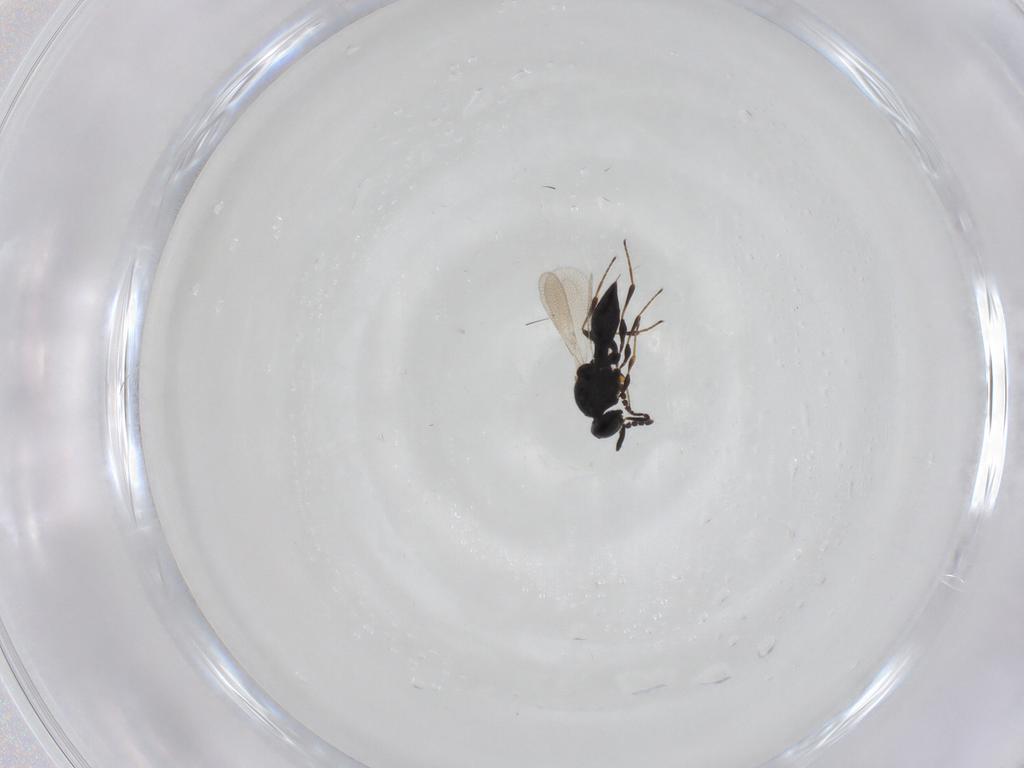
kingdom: Animalia
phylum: Arthropoda
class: Insecta
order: Hymenoptera
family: Platygastridae
